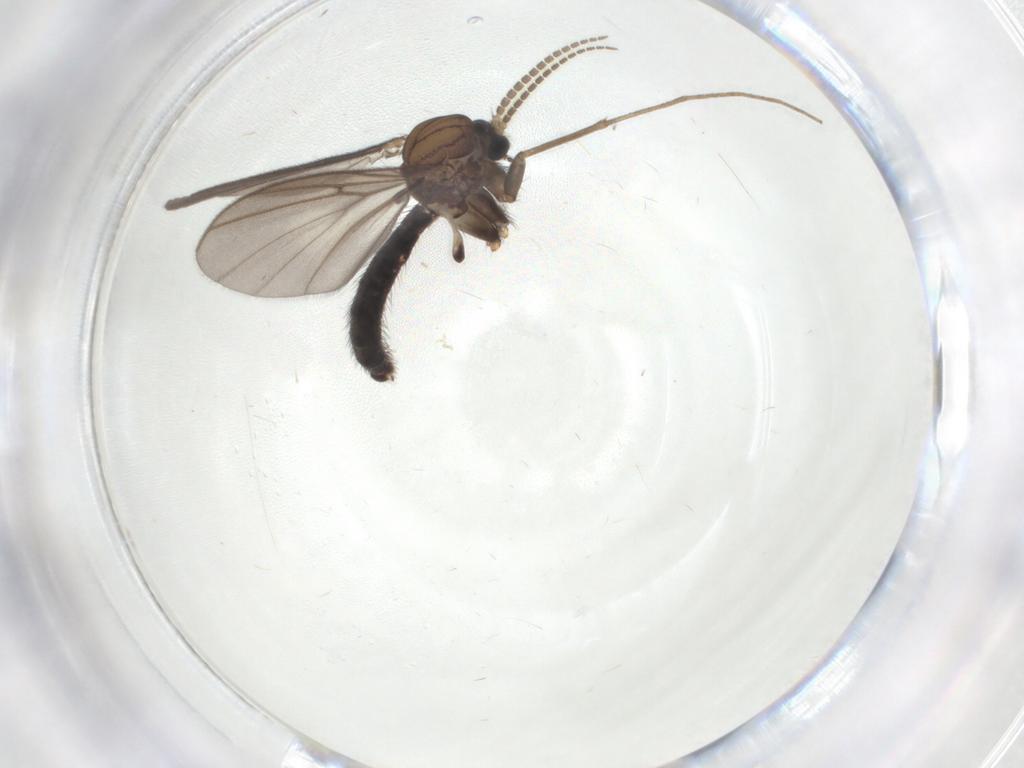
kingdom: Animalia
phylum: Arthropoda
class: Insecta
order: Diptera
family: Mycetophilidae
